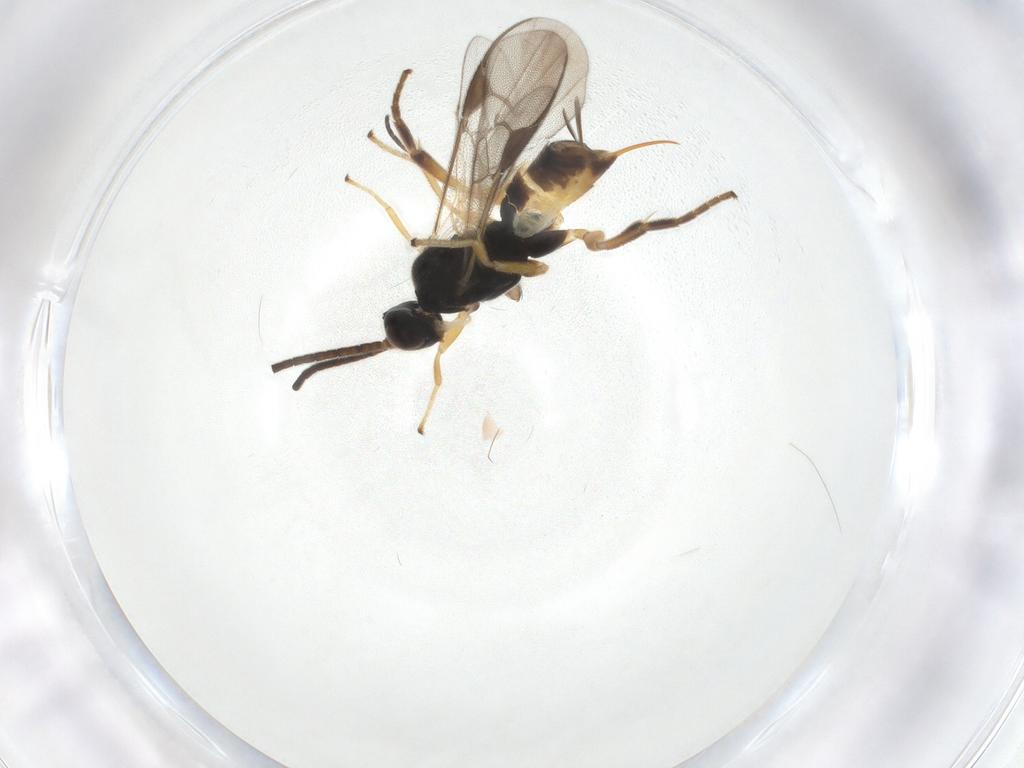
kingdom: Animalia
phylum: Arthropoda
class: Insecta
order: Hymenoptera
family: Braconidae
